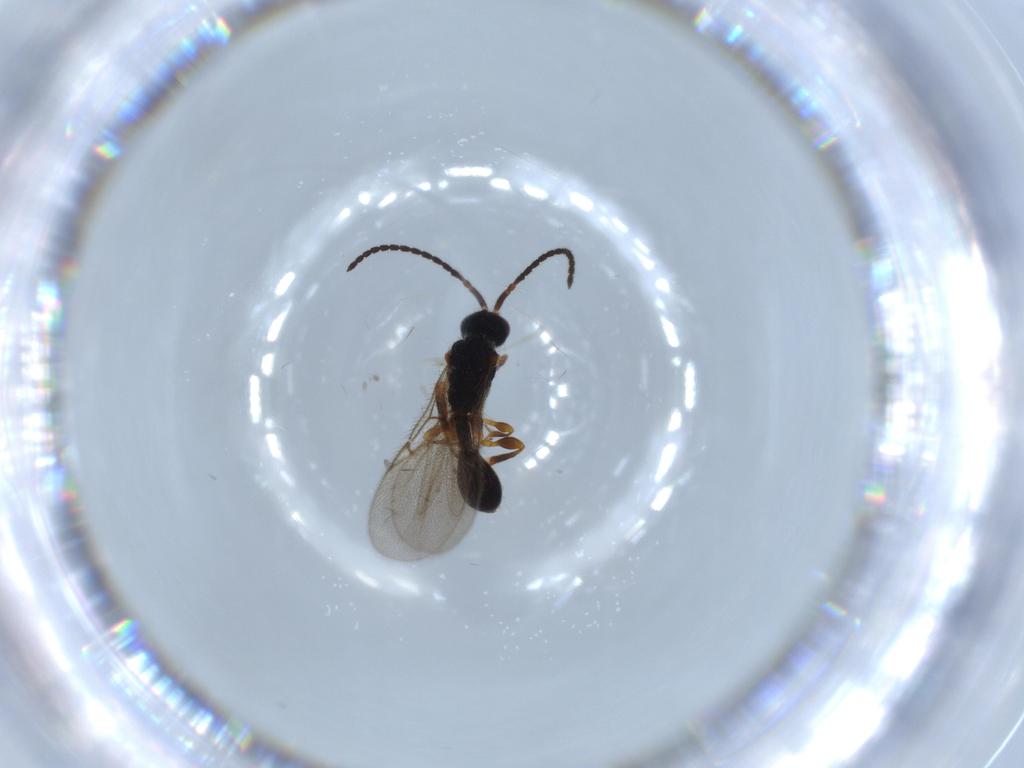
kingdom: Animalia
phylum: Arthropoda
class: Insecta
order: Hymenoptera
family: Diapriidae
